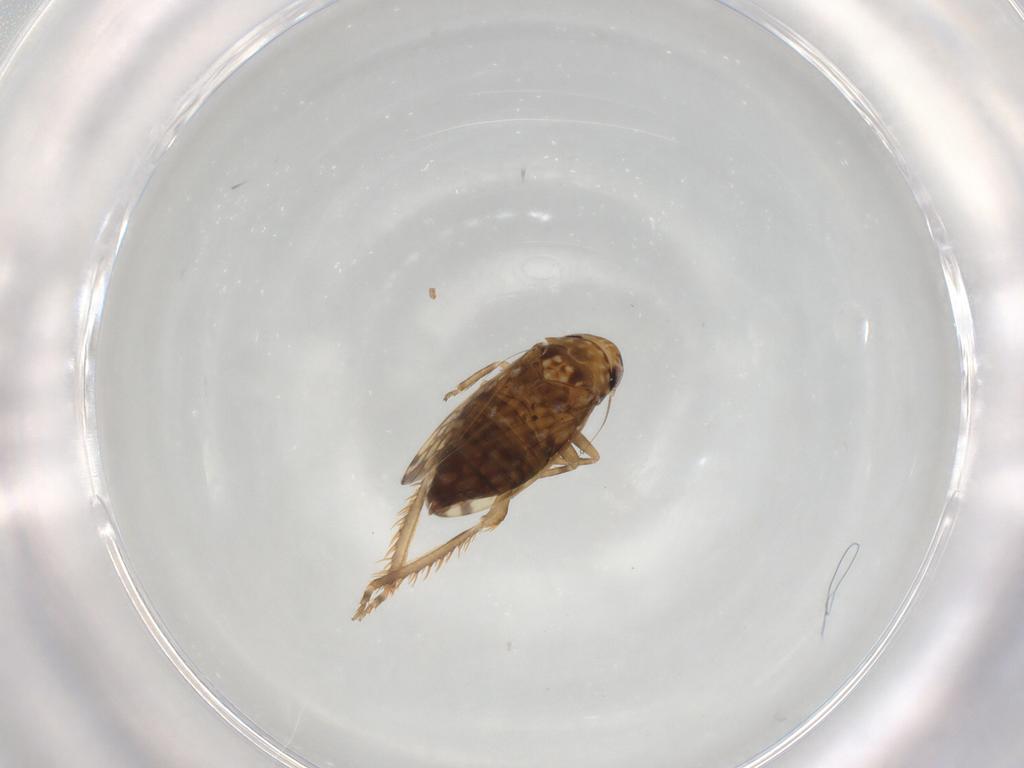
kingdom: Animalia
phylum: Arthropoda
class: Insecta
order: Hemiptera
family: Cicadellidae
